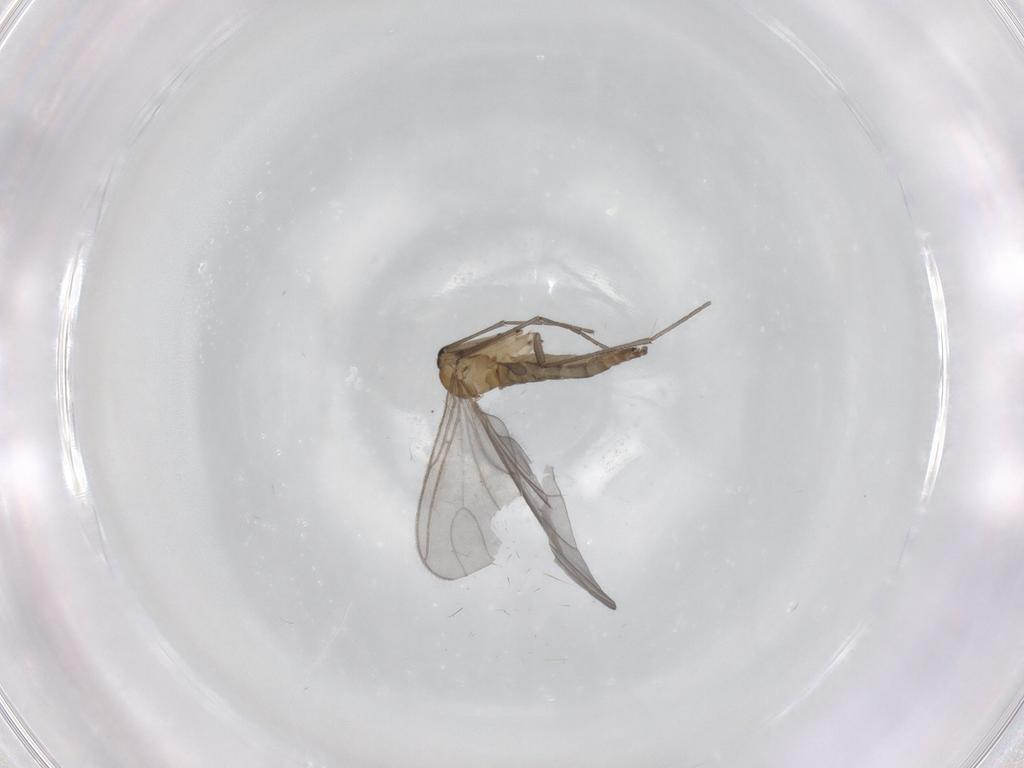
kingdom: Animalia
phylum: Arthropoda
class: Insecta
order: Diptera
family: Sciaridae
